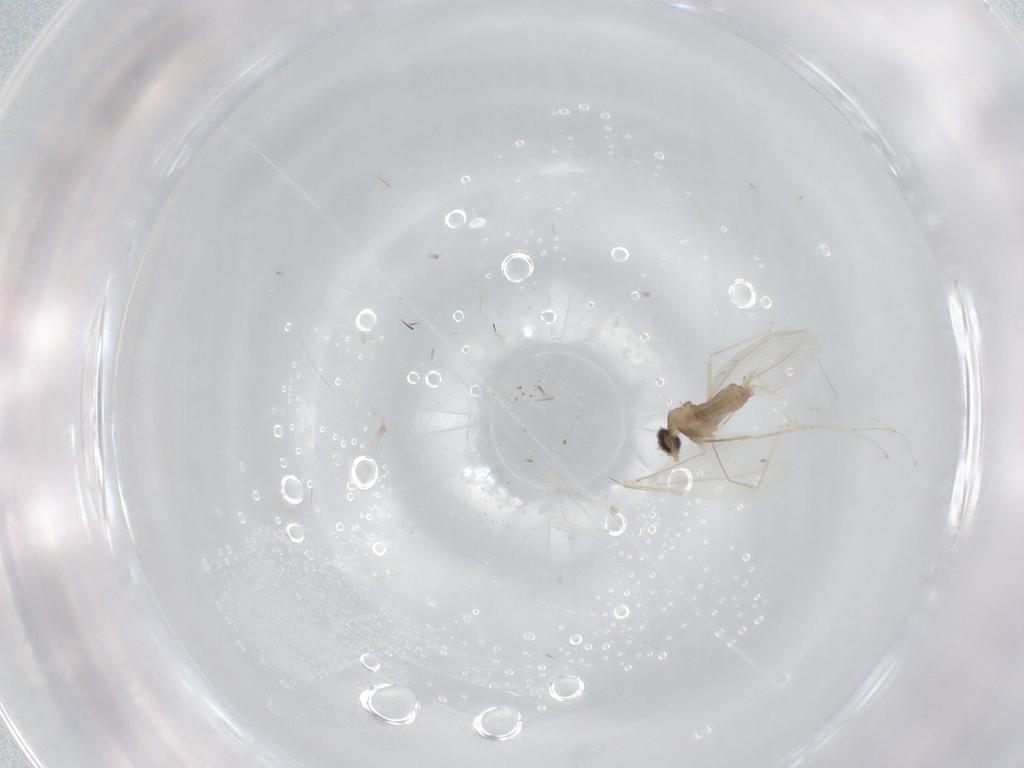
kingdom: Animalia
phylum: Arthropoda
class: Insecta
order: Diptera
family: Cecidomyiidae
